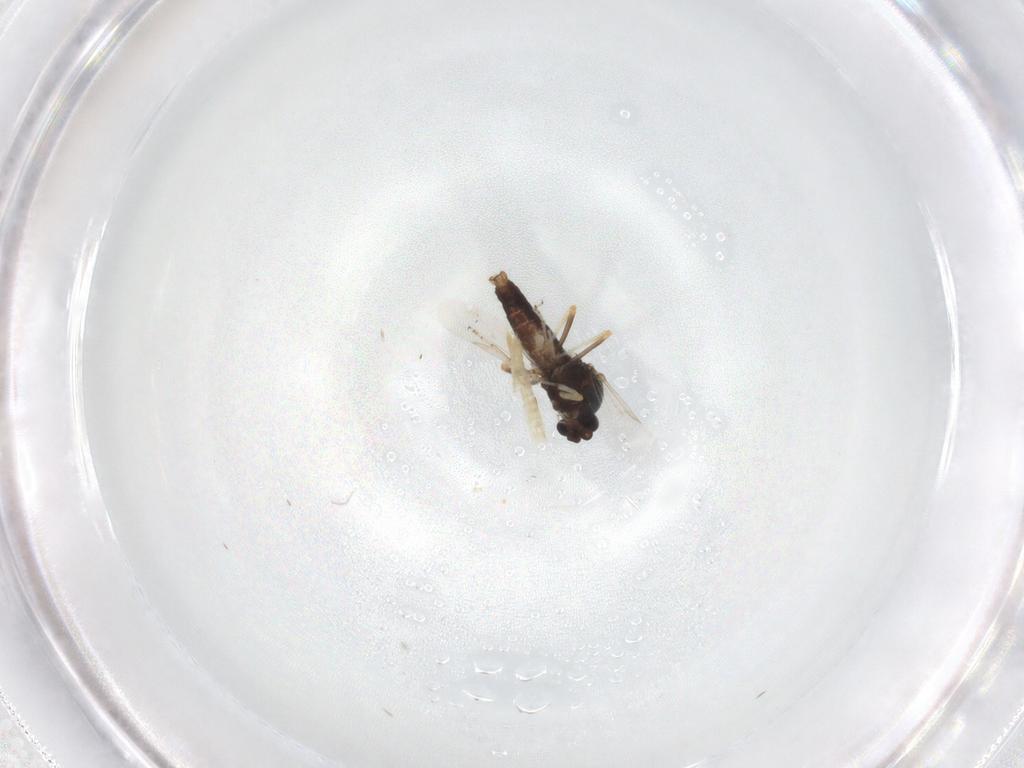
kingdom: Animalia
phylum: Arthropoda
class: Insecta
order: Diptera
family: Ceratopogonidae
